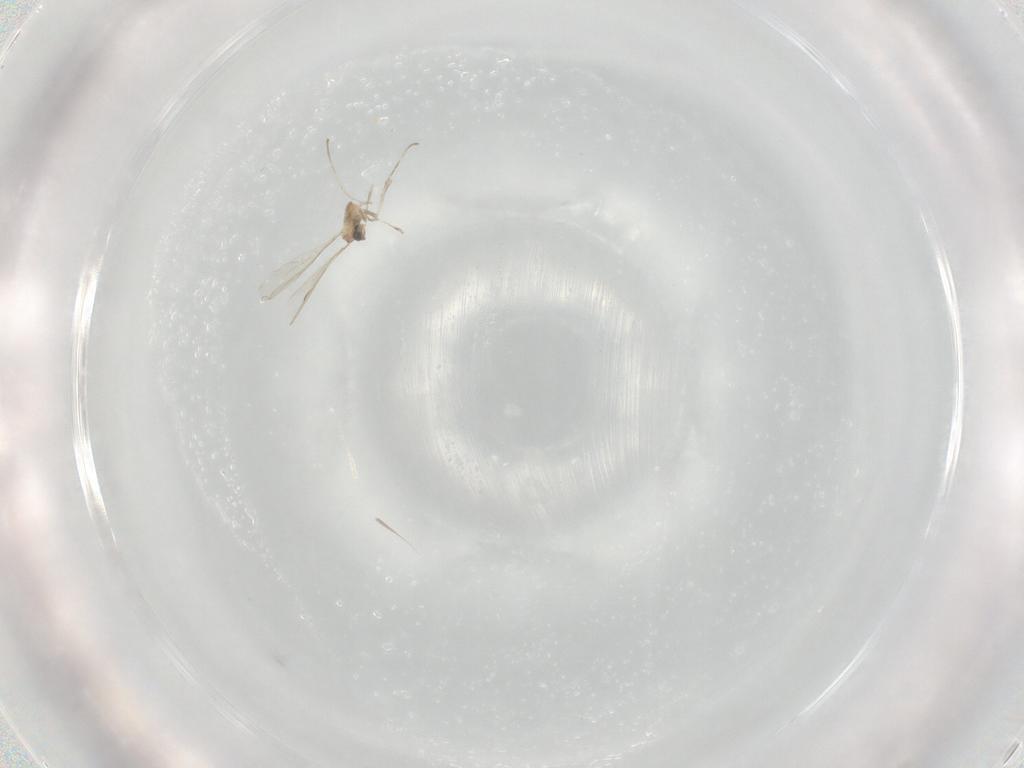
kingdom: Animalia
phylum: Arthropoda
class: Insecta
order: Diptera
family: Cecidomyiidae
